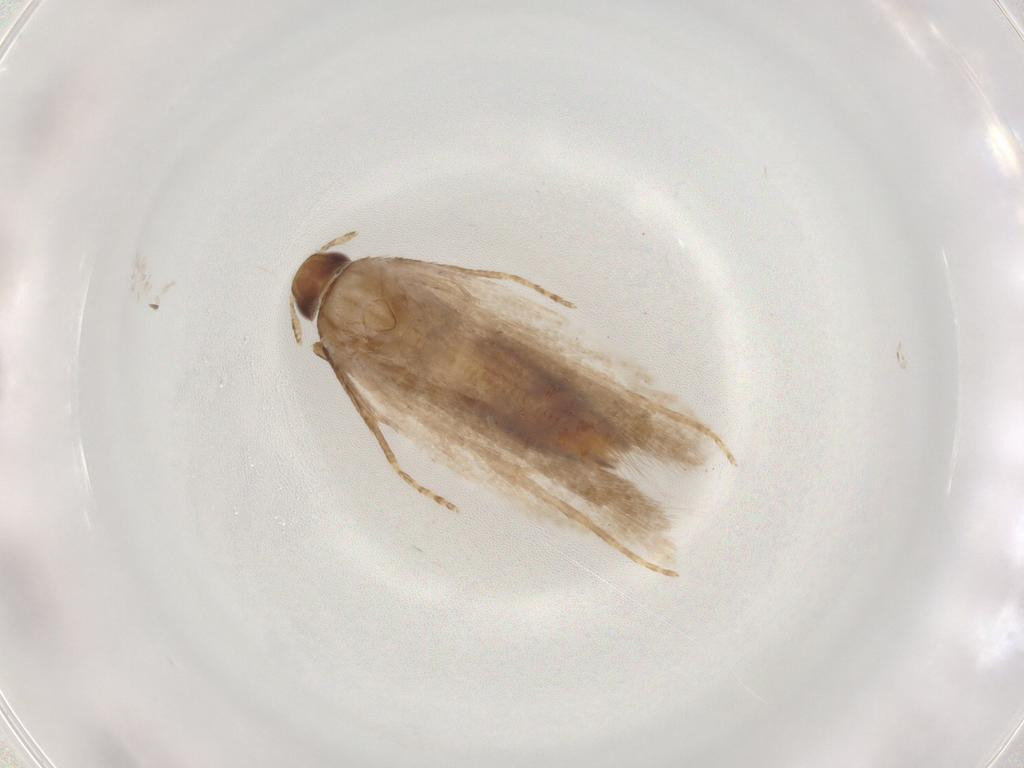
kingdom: Animalia
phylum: Arthropoda
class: Insecta
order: Lepidoptera
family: Gelechiidae
